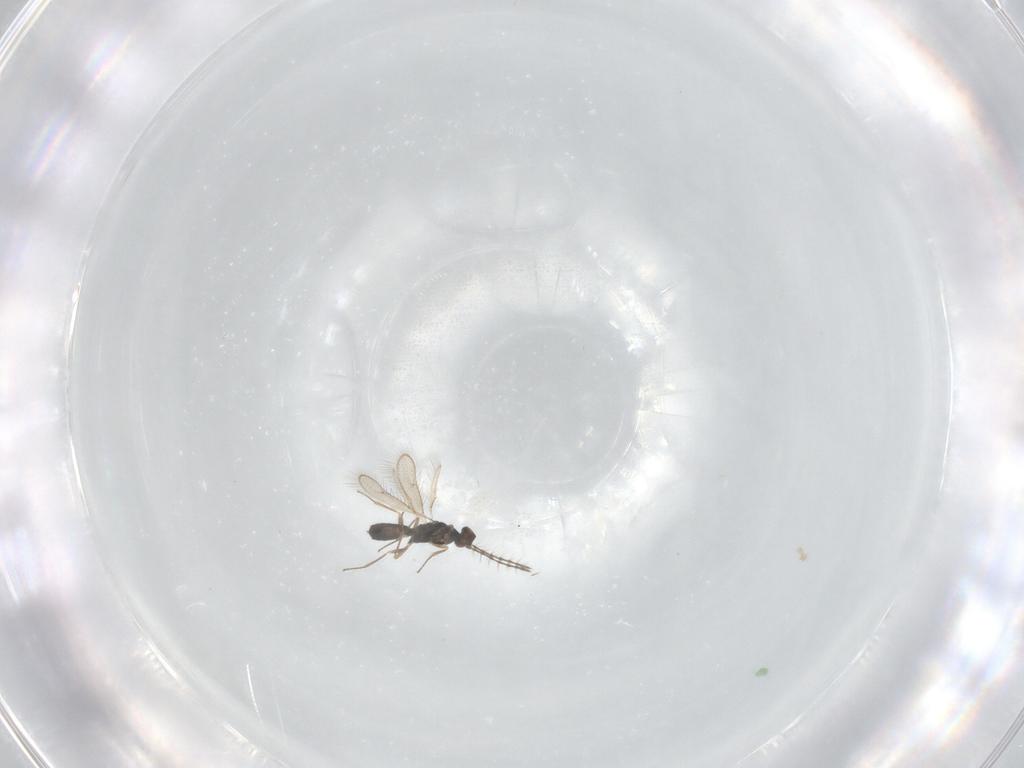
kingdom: Animalia
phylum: Arthropoda
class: Insecta
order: Hymenoptera
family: Pteromalidae
